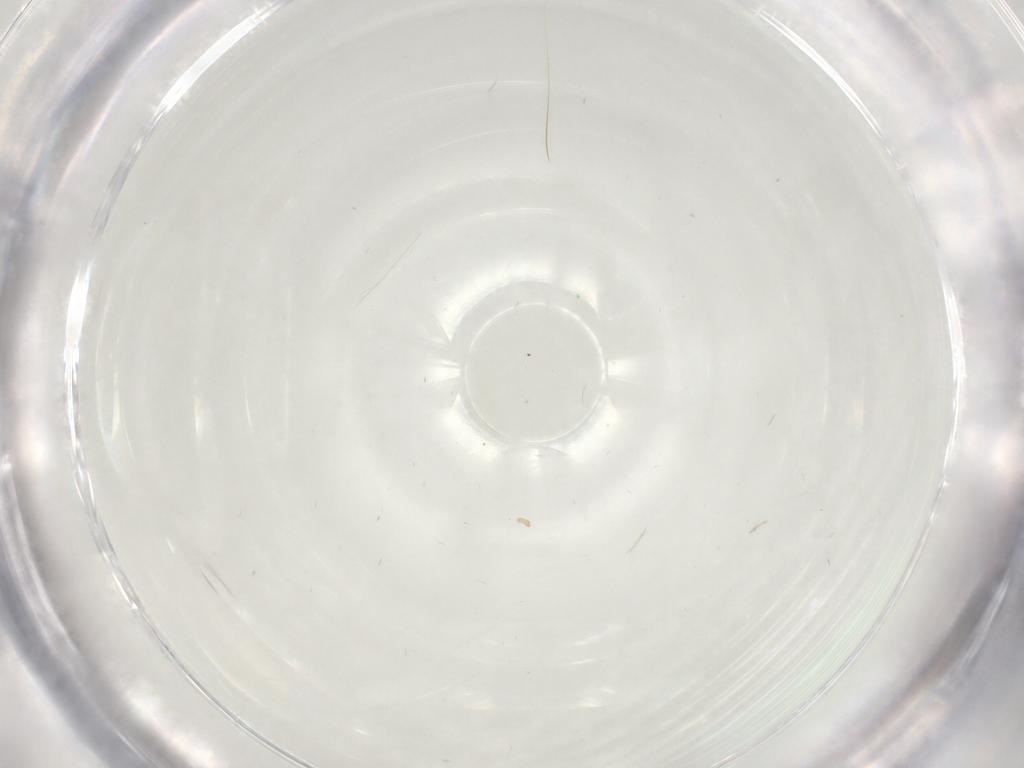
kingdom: Animalia
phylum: Arthropoda
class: Insecta
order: Hymenoptera
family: Mymaridae
